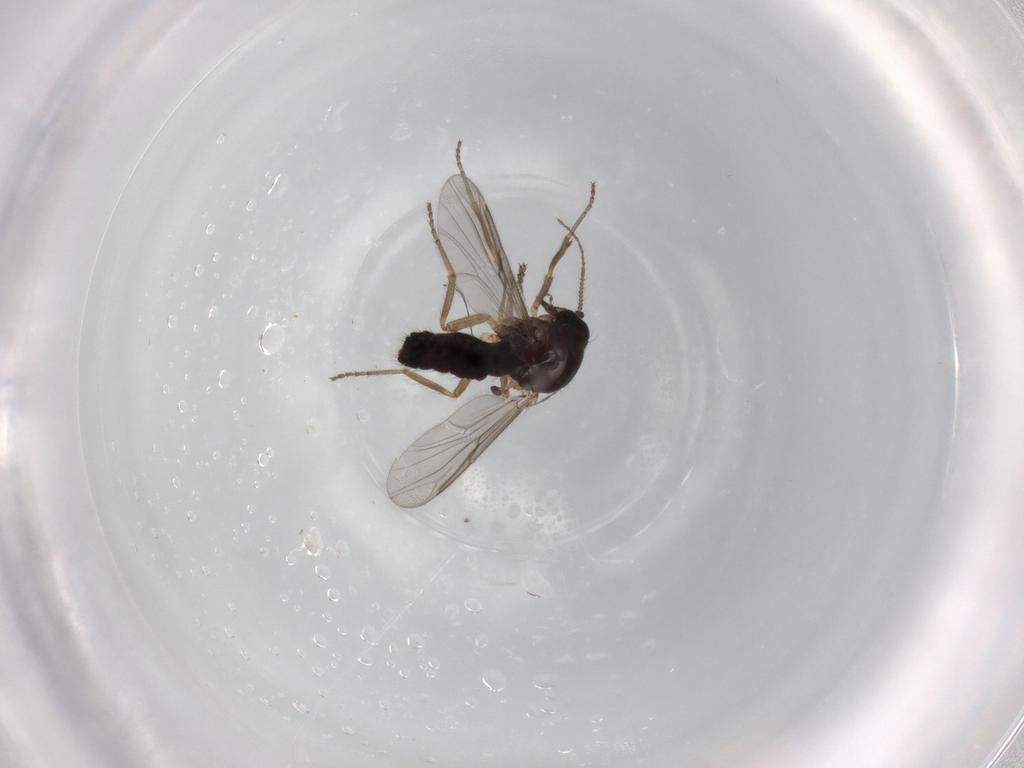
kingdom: Animalia
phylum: Arthropoda
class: Insecta
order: Diptera
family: Ceratopogonidae
